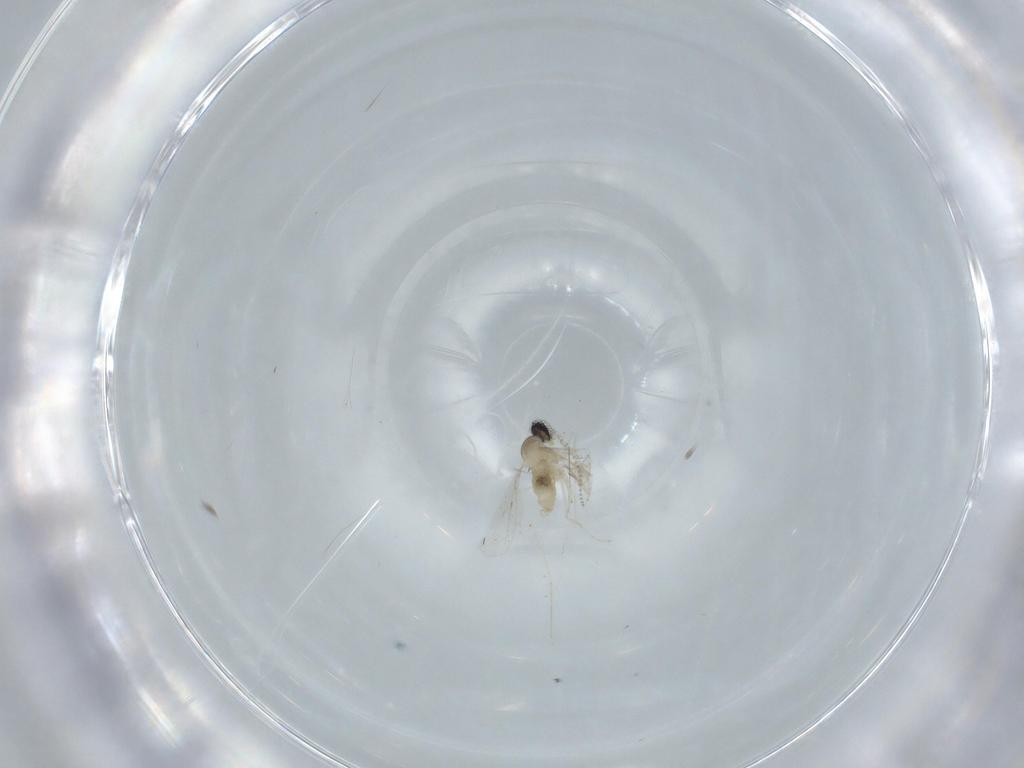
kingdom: Animalia
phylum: Arthropoda
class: Insecta
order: Diptera
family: Cecidomyiidae
